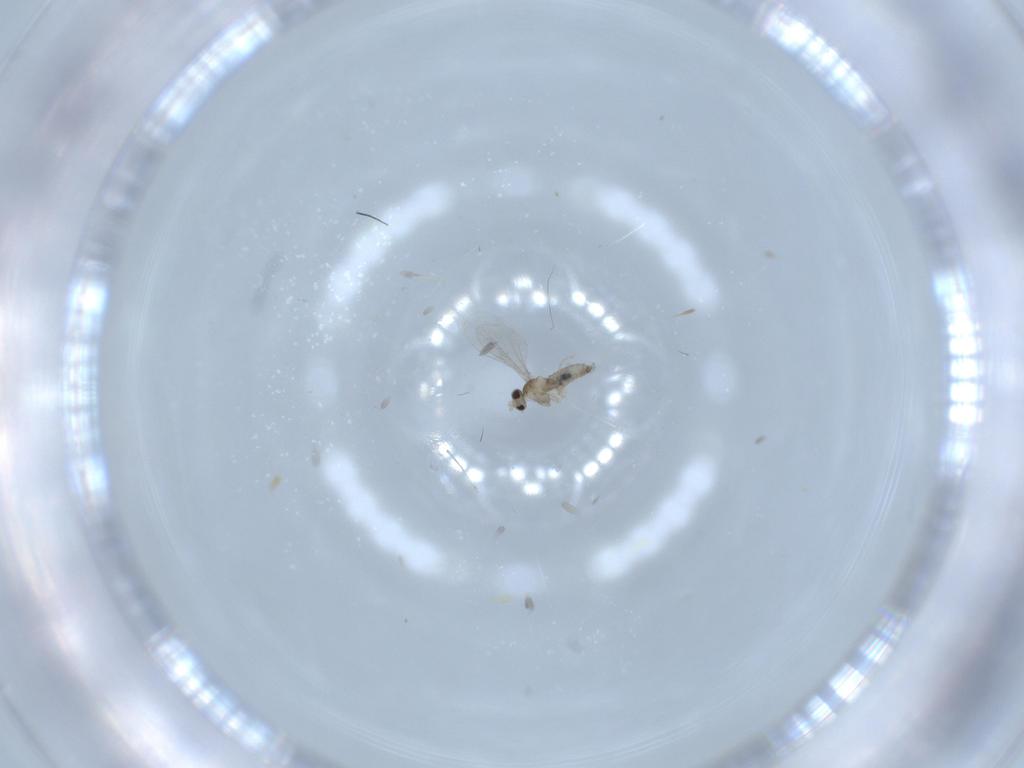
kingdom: Animalia
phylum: Arthropoda
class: Insecta
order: Diptera
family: Cecidomyiidae
